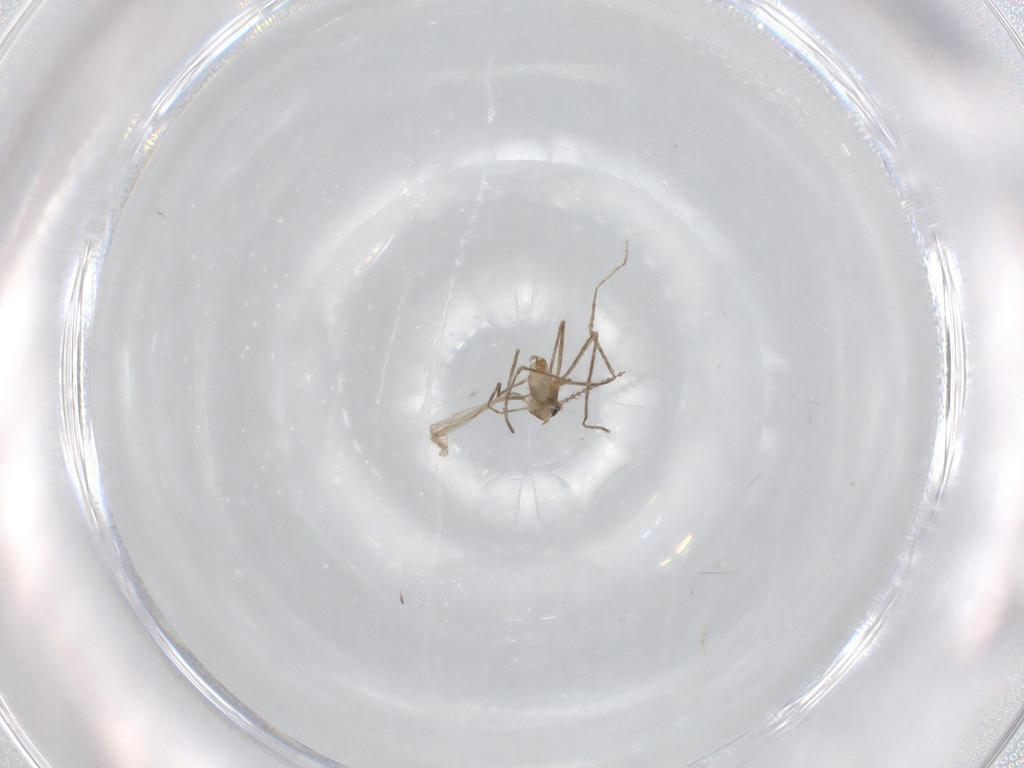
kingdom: Animalia
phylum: Arthropoda
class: Insecta
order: Diptera
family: Cecidomyiidae
